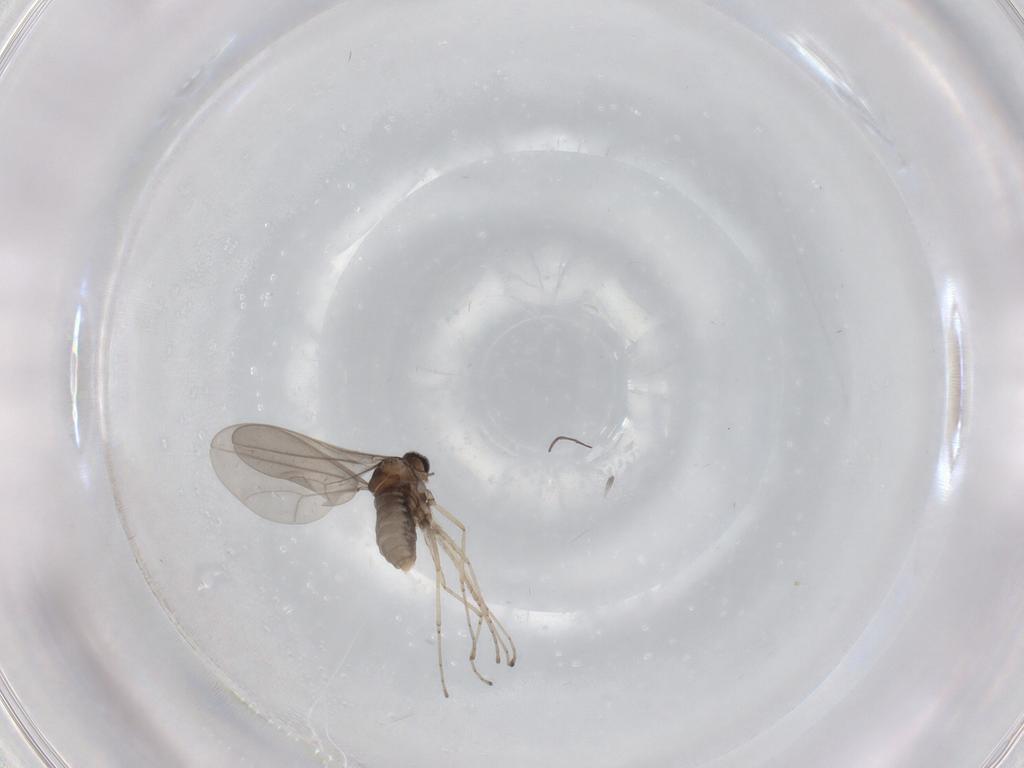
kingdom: Animalia
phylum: Arthropoda
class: Insecta
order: Diptera
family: Cecidomyiidae
